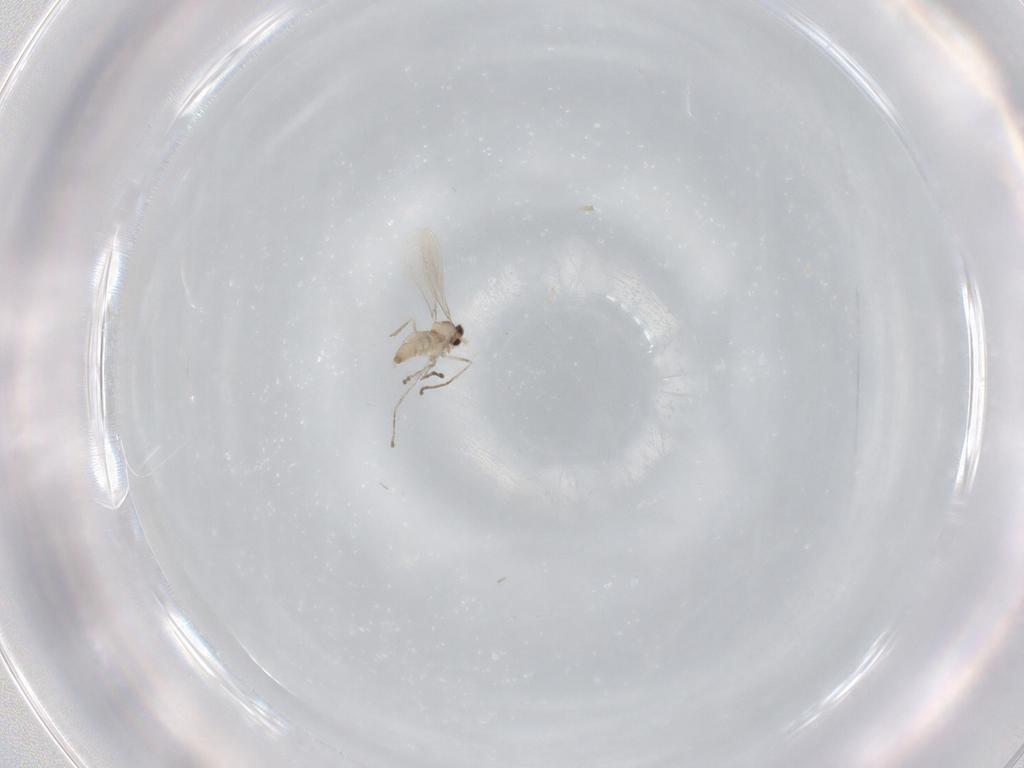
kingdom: Animalia
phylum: Arthropoda
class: Insecta
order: Diptera
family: Cecidomyiidae
